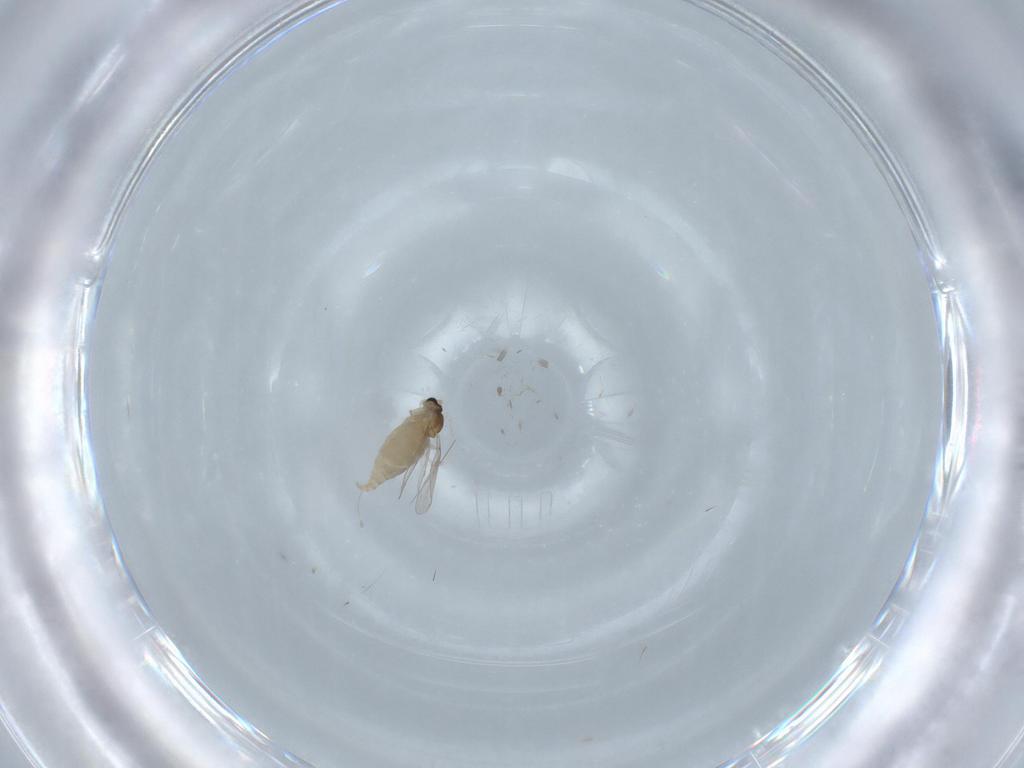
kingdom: Animalia
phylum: Arthropoda
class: Insecta
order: Diptera
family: Cecidomyiidae
